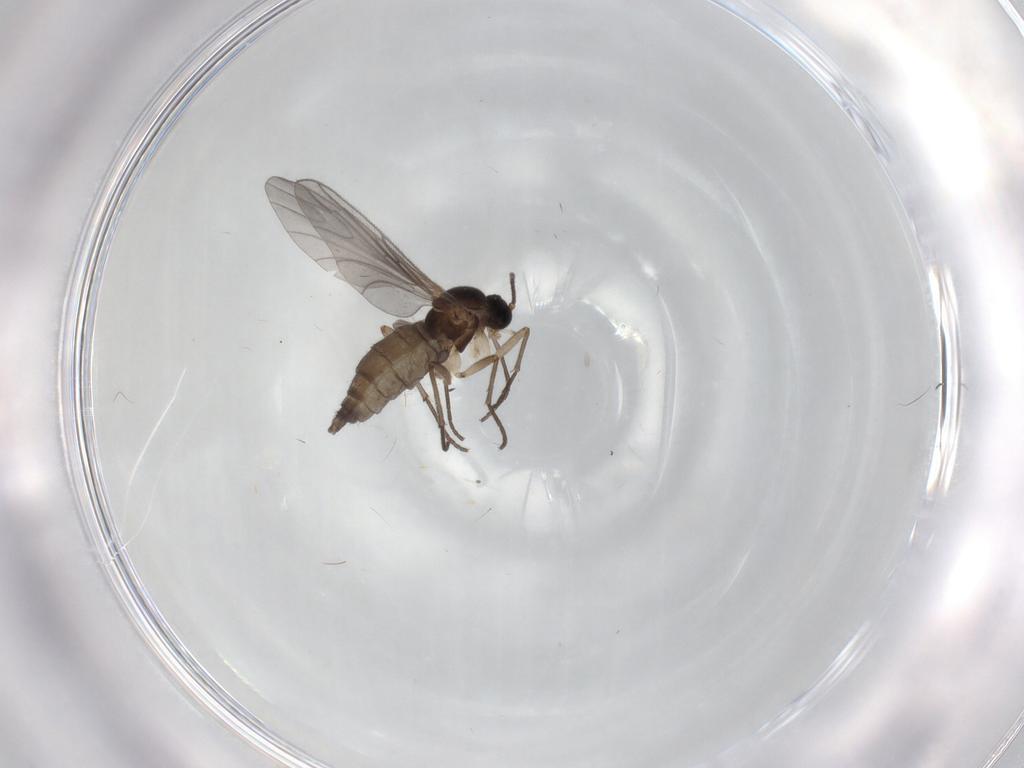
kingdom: Animalia
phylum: Arthropoda
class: Insecta
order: Diptera
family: Sciaridae
